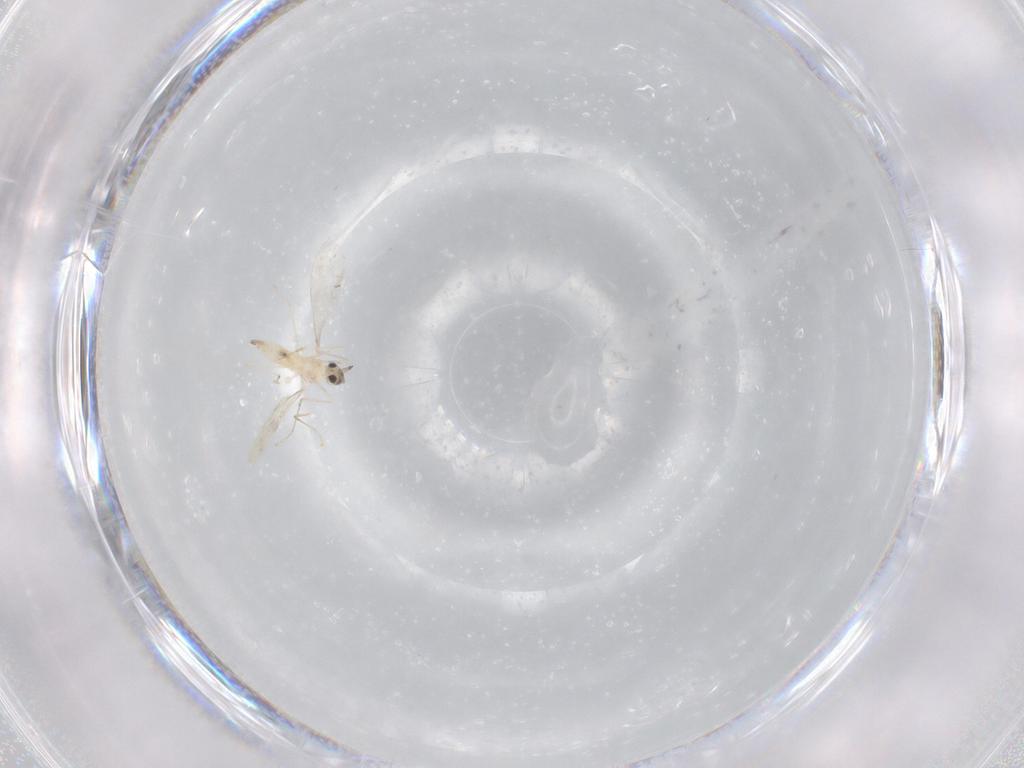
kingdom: Animalia
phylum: Arthropoda
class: Insecta
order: Diptera
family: Cecidomyiidae
